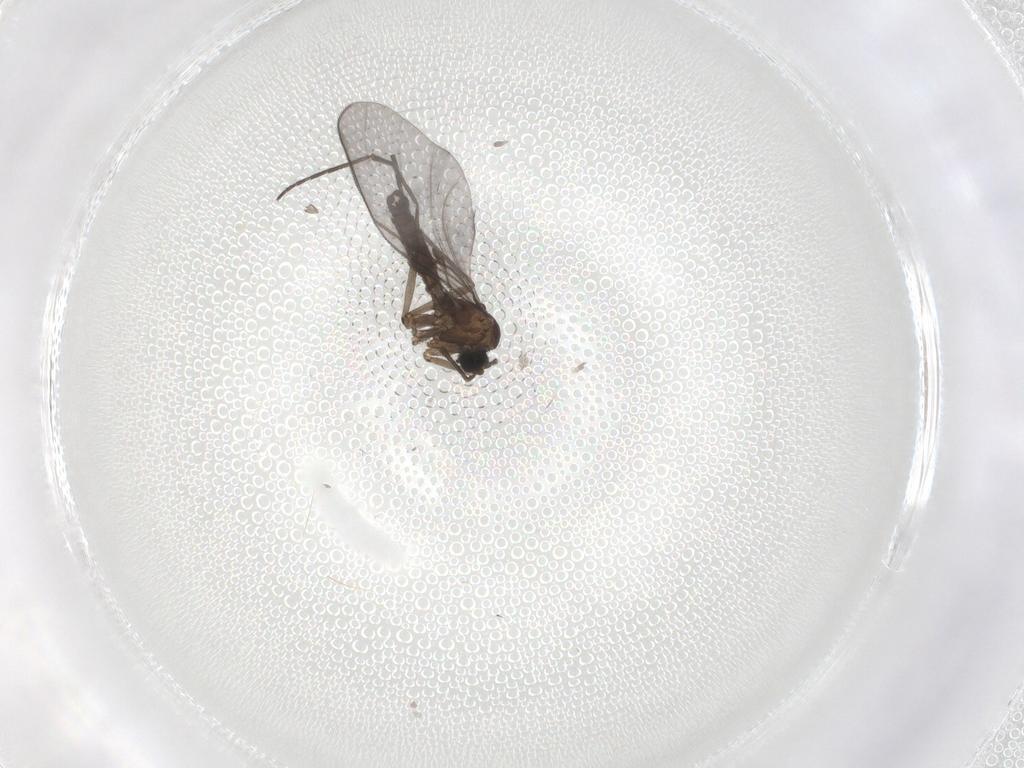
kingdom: Animalia
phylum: Arthropoda
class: Insecta
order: Diptera
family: Sciaridae
